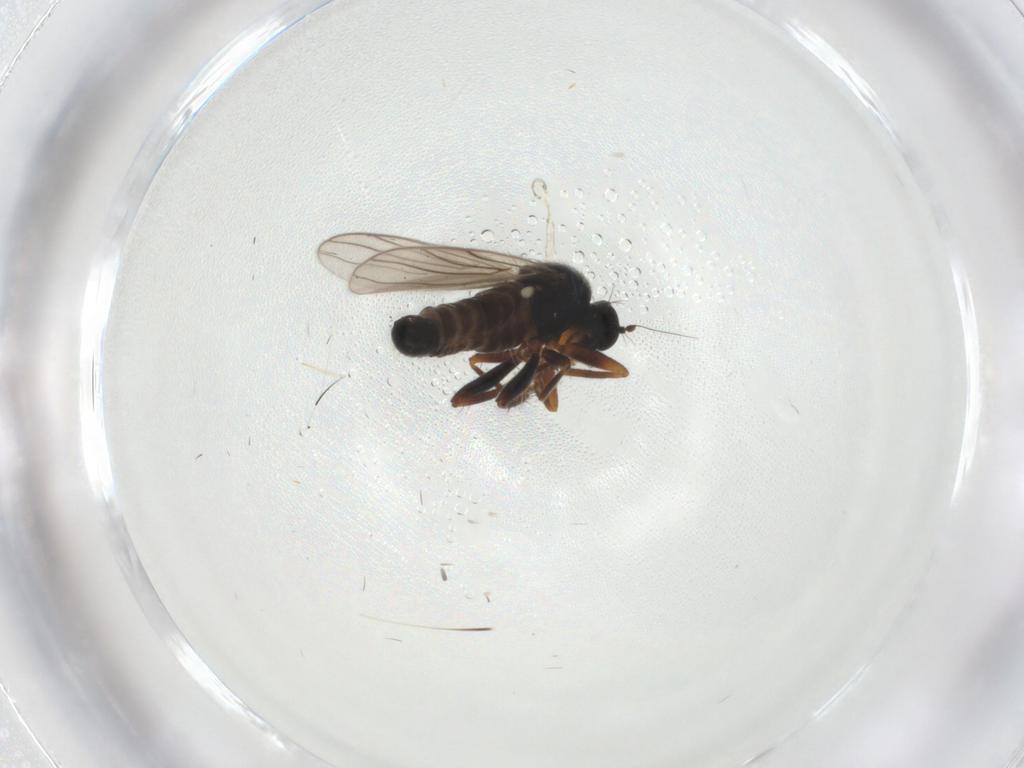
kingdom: Animalia
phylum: Arthropoda
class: Insecta
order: Diptera
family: Hybotidae
